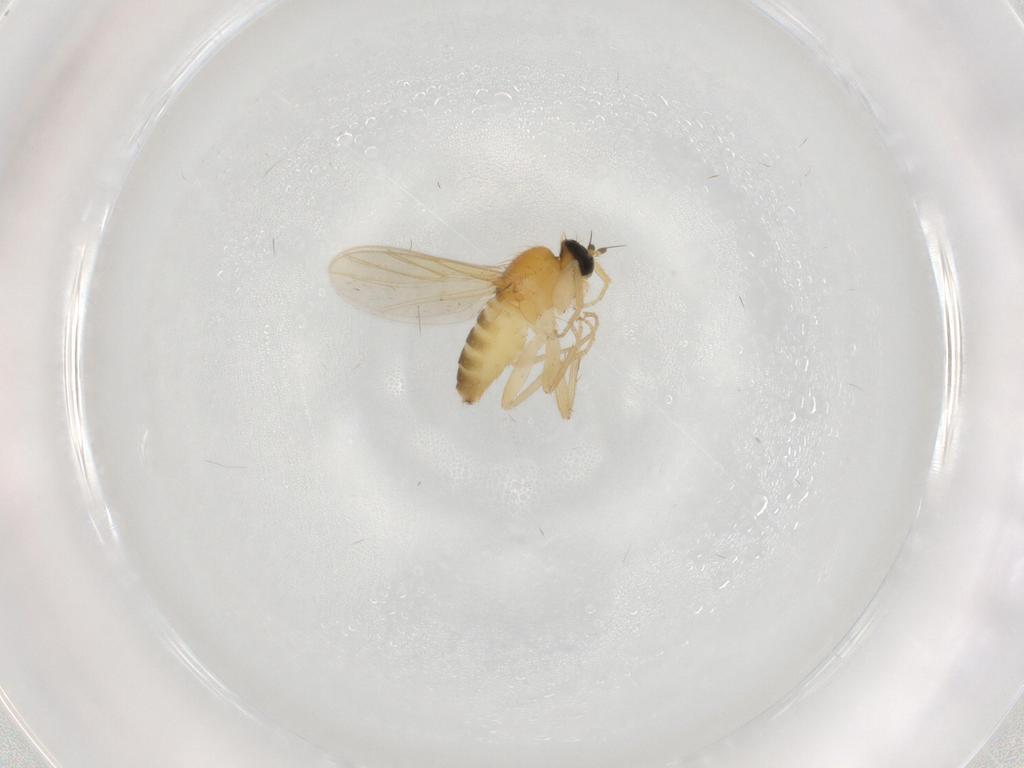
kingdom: Animalia
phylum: Arthropoda
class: Insecta
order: Diptera
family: Hybotidae
